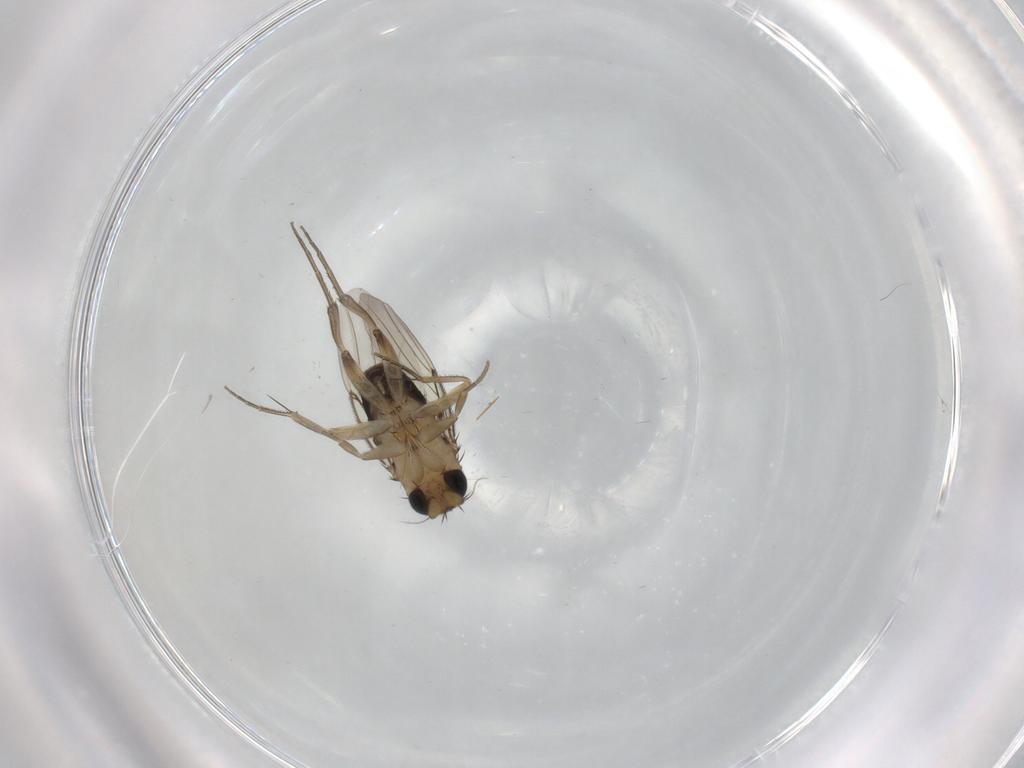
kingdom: Animalia
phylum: Arthropoda
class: Insecta
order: Diptera
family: Phoridae
